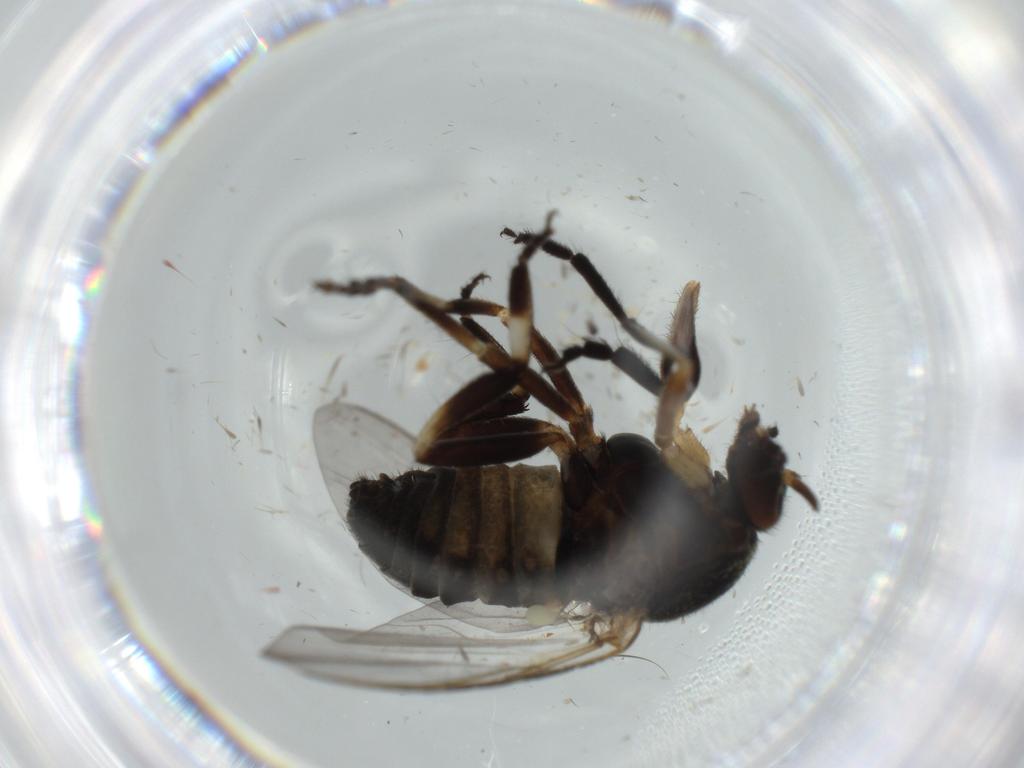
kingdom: Animalia
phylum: Arthropoda
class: Insecta
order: Diptera
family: Phoridae
